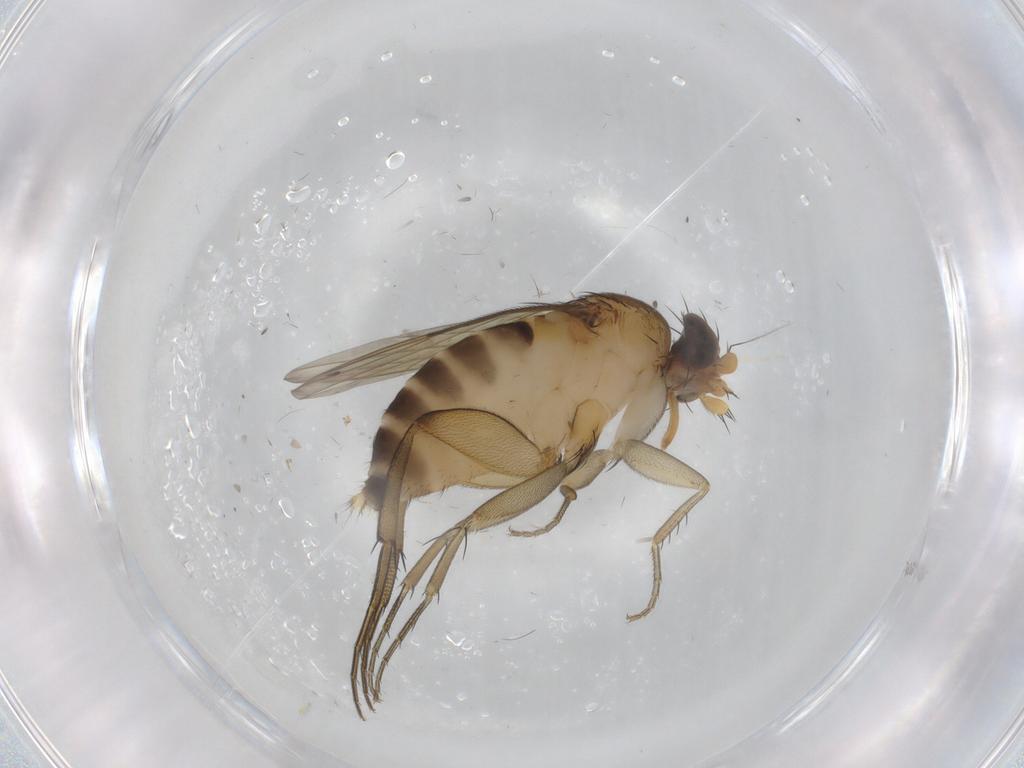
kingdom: Animalia
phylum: Arthropoda
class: Insecta
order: Diptera
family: Phoridae
